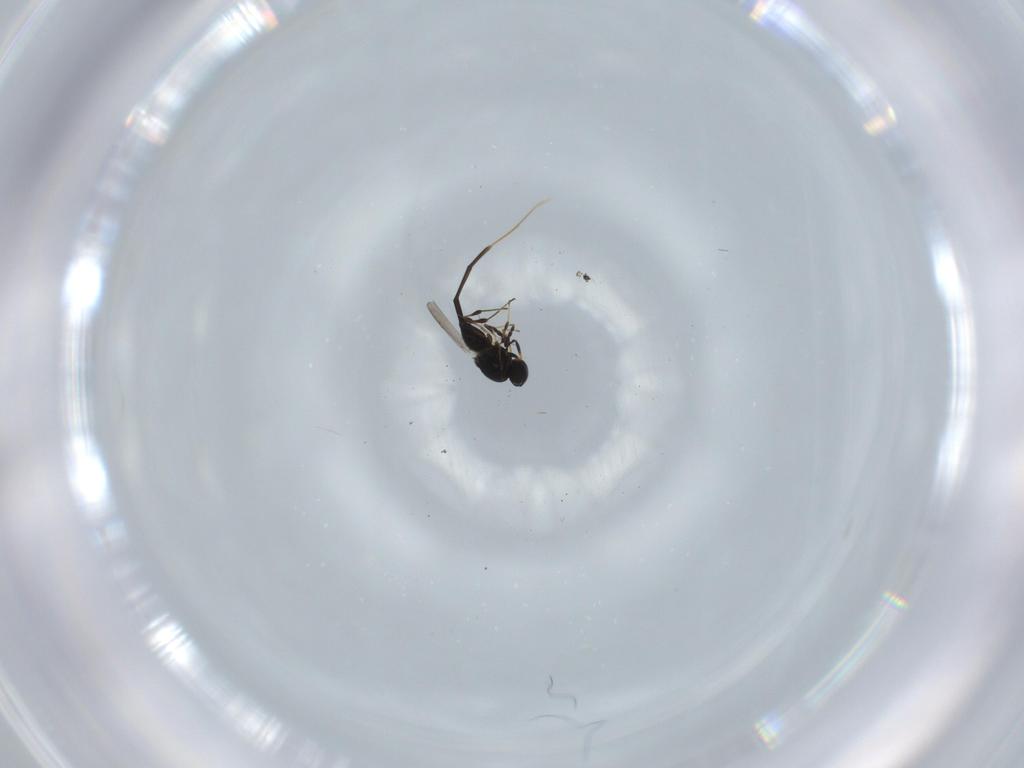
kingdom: Animalia
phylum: Arthropoda
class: Insecta
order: Hymenoptera
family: Platygastridae
